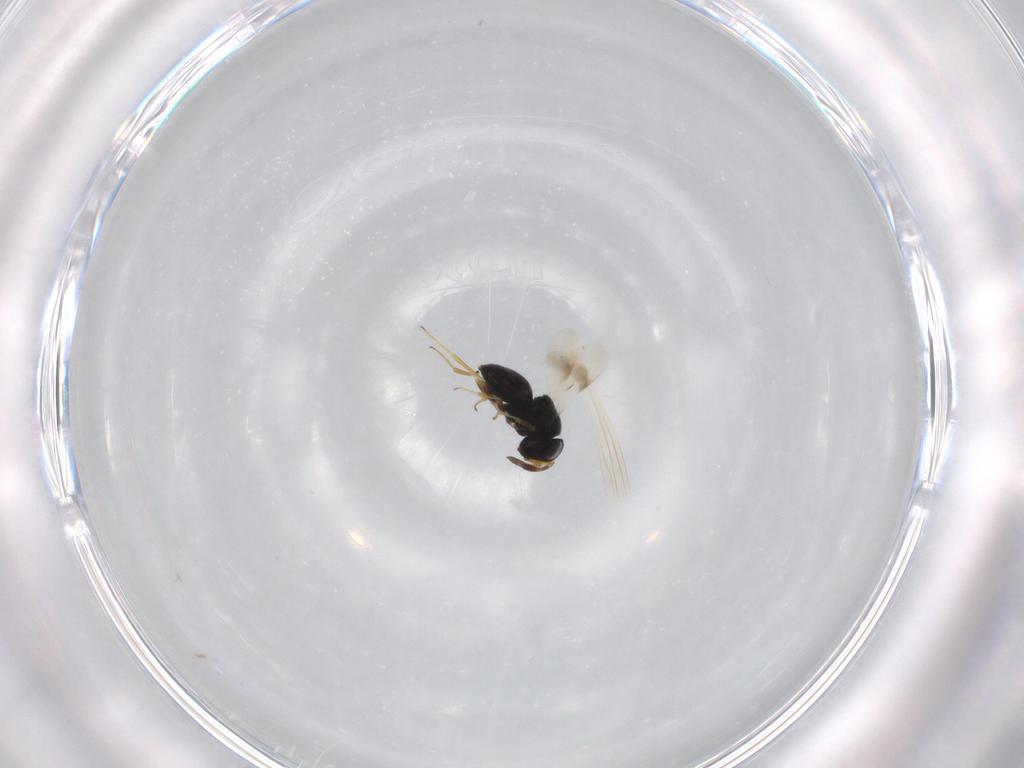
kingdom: Animalia
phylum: Arthropoda
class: Insecta
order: Hymenoptera
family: Scelionidae
